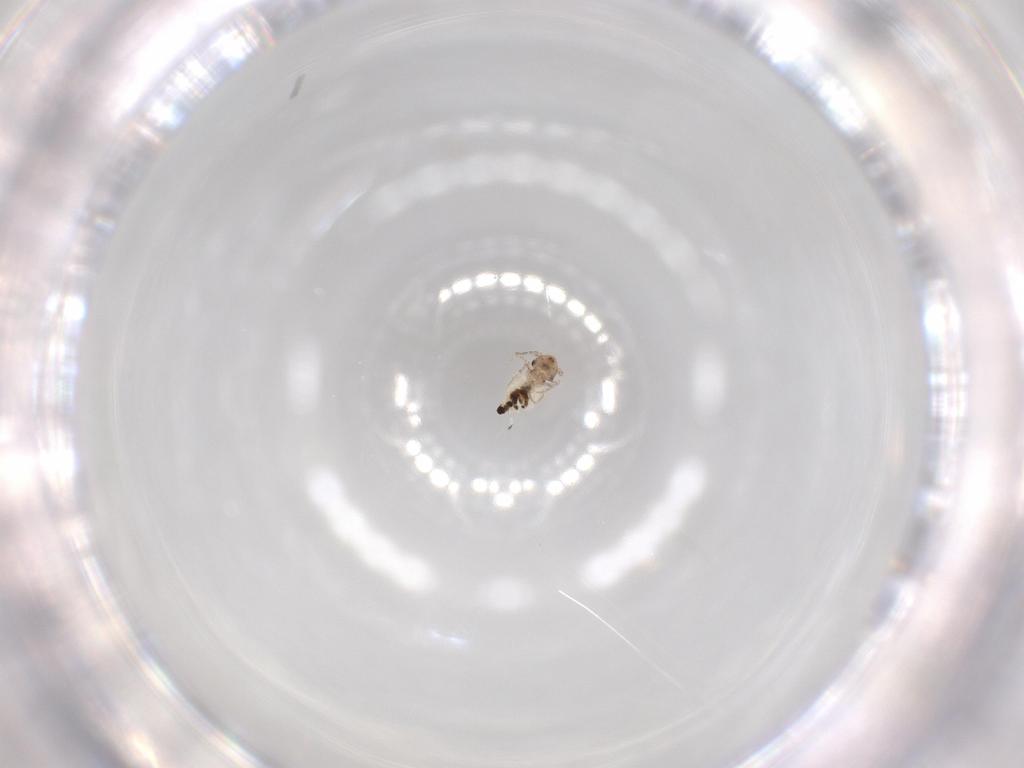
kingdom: Animalia
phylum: Arthropoda
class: Insecta
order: Psocodea
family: Lepidopsocidae
